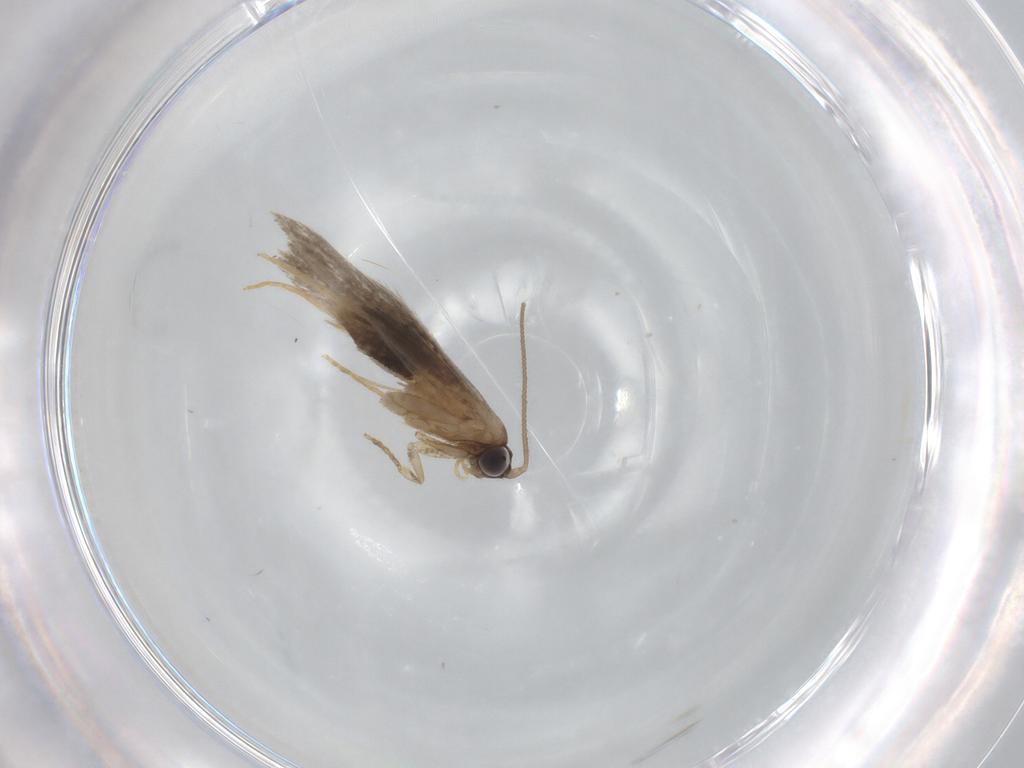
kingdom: Animalia
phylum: Arthropoda
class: Insecta
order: Lepidoptera
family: Tineidae
